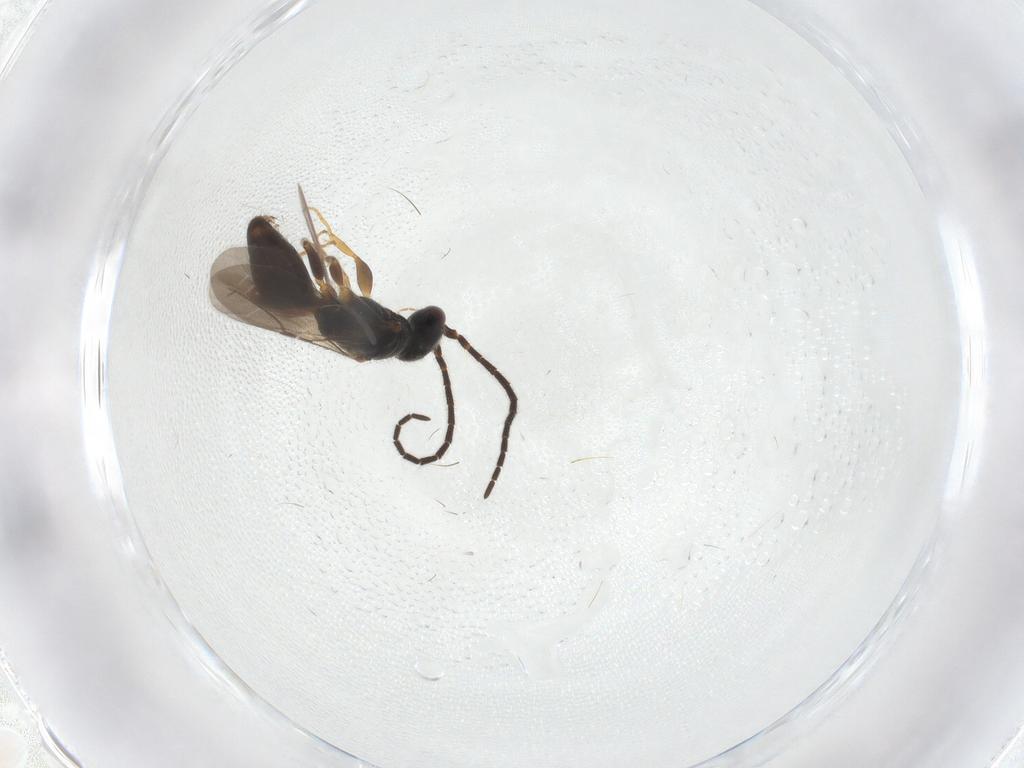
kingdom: Animalia
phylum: Arthropoda
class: Insecta
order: Hymenoptera
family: Bethylidae
